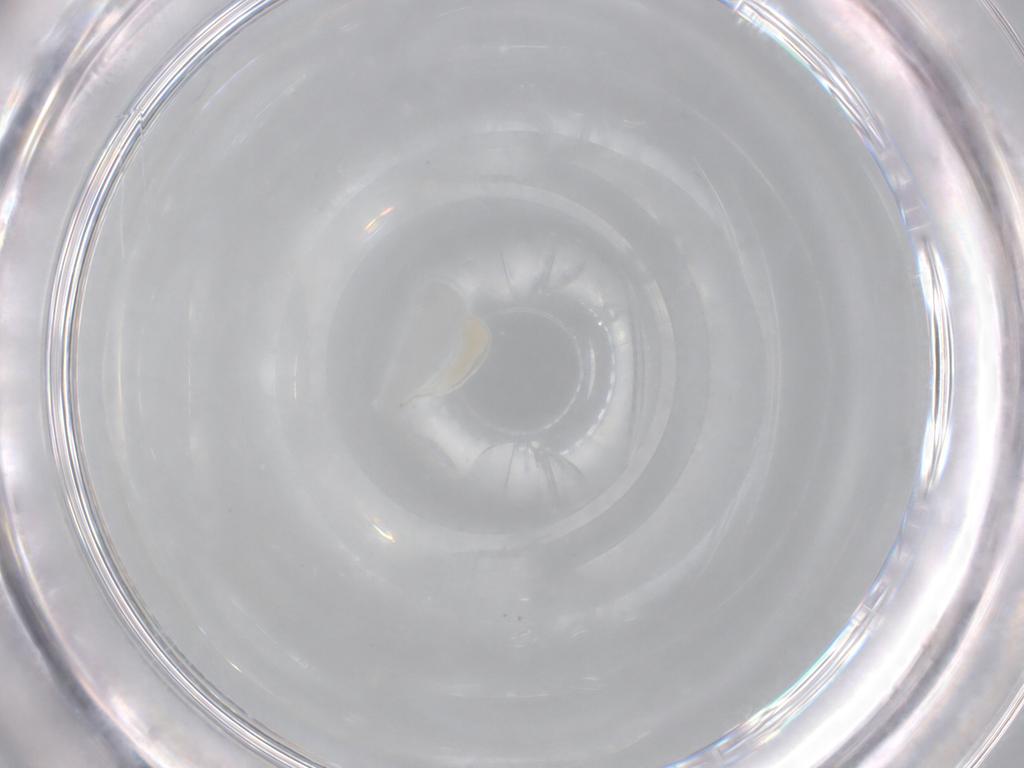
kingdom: Animalia
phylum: Arthropoda
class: Insecta
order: Hymenoptera
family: Ichneumonidae
